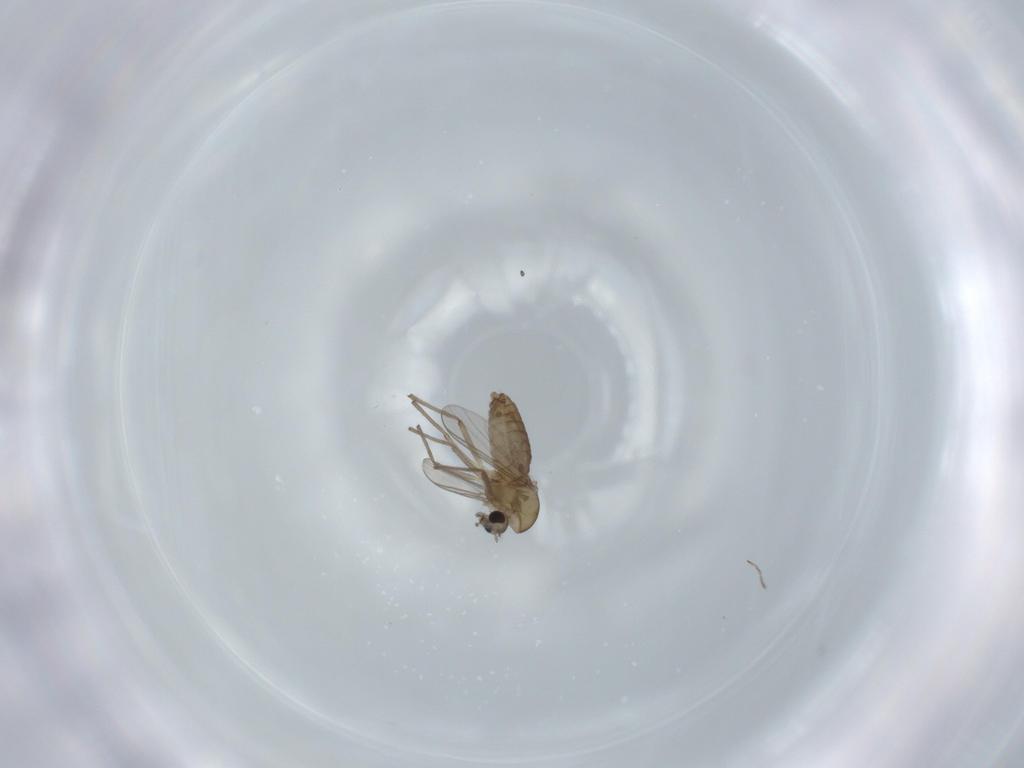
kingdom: Animalia
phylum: Arthropoda
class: Insecta
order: Diptera
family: Chironomidae
